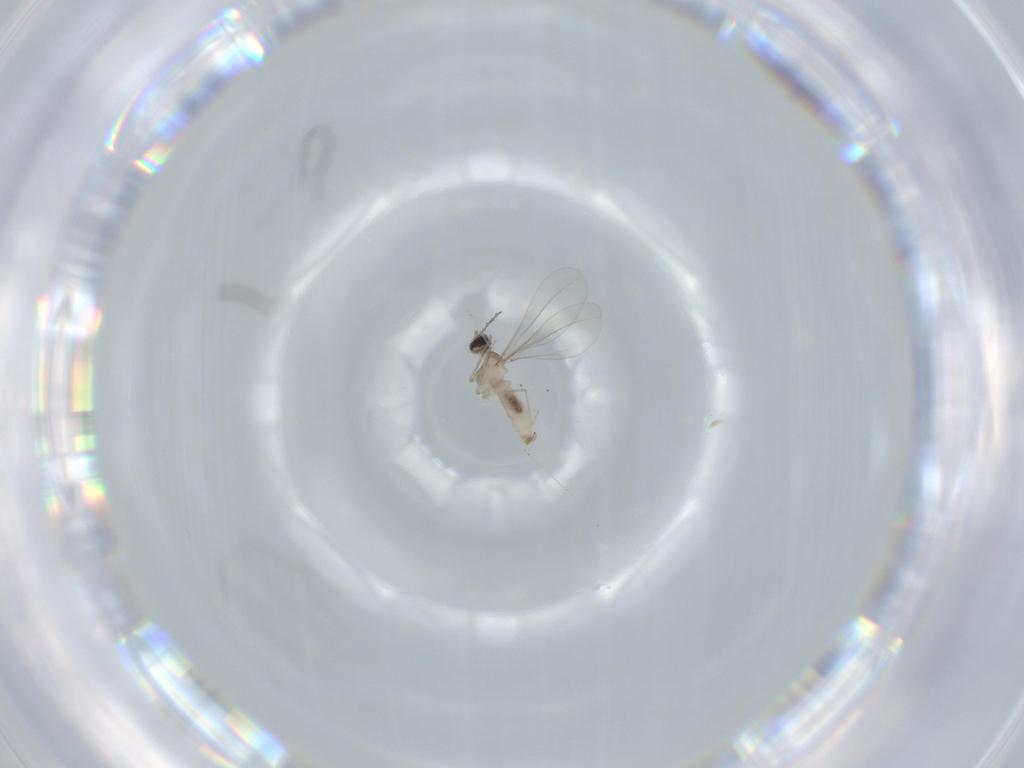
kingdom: Animalia
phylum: Arthropoda
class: Insecta
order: Diptera
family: Cecidomyiidae
